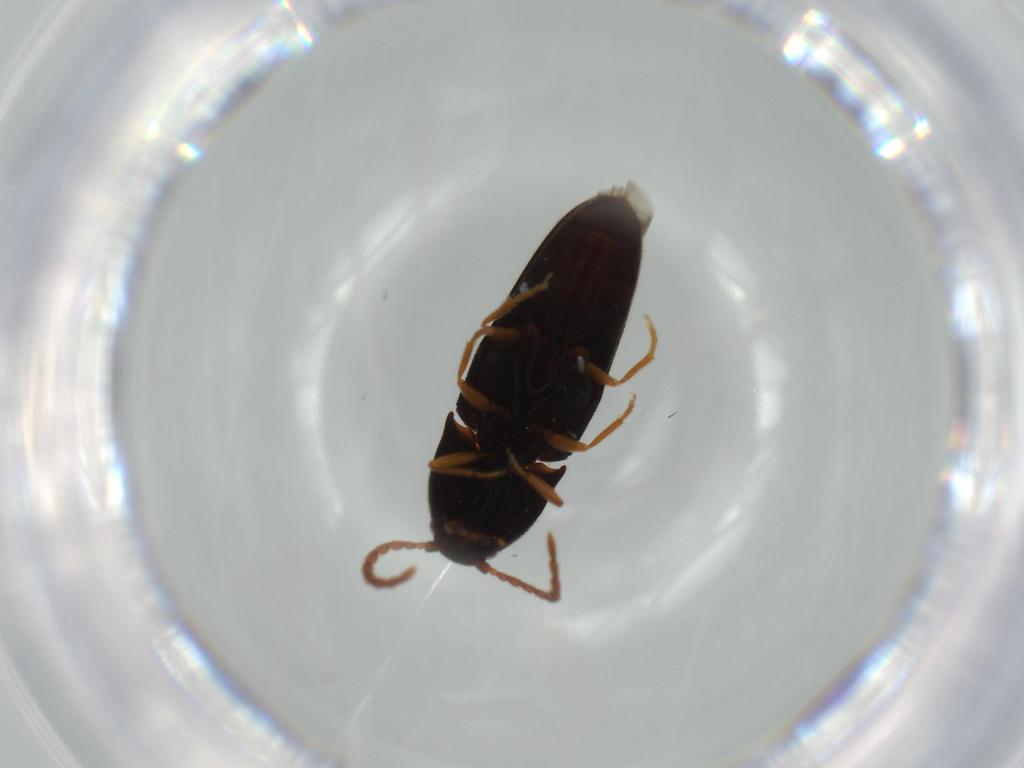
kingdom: Animalia
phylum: Arthropoda
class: Insecta
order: Coleoptera
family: Elateridae
